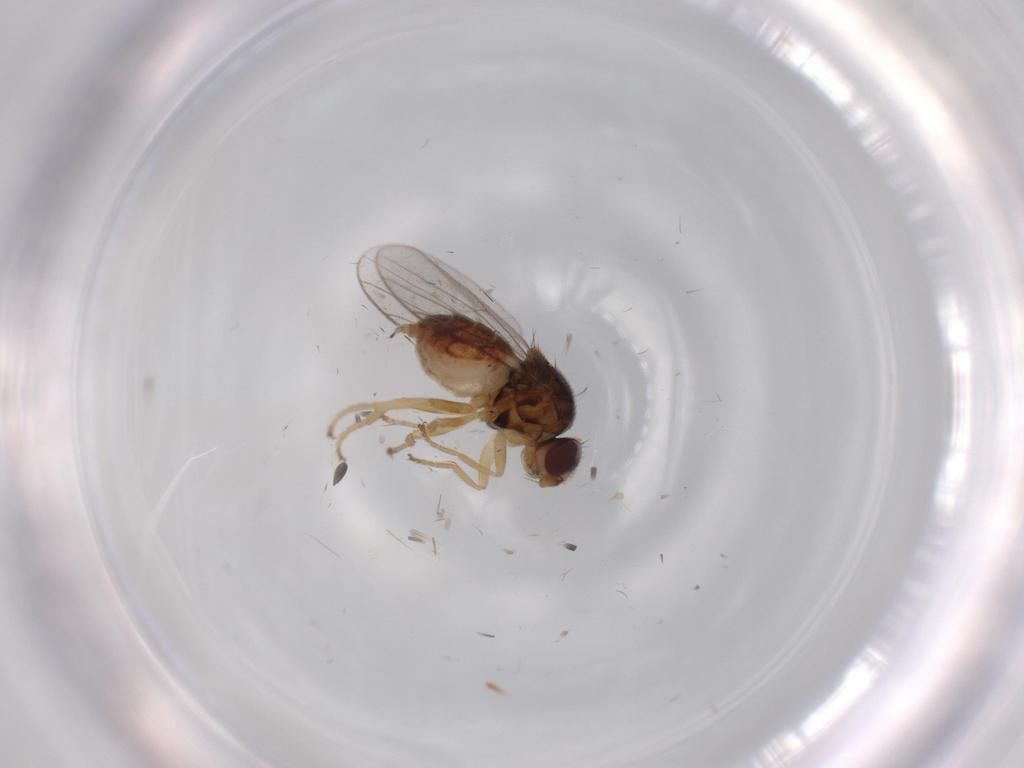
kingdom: Animalia
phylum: Arthropoda
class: Insecta
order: Diptera
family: Chloropidae
